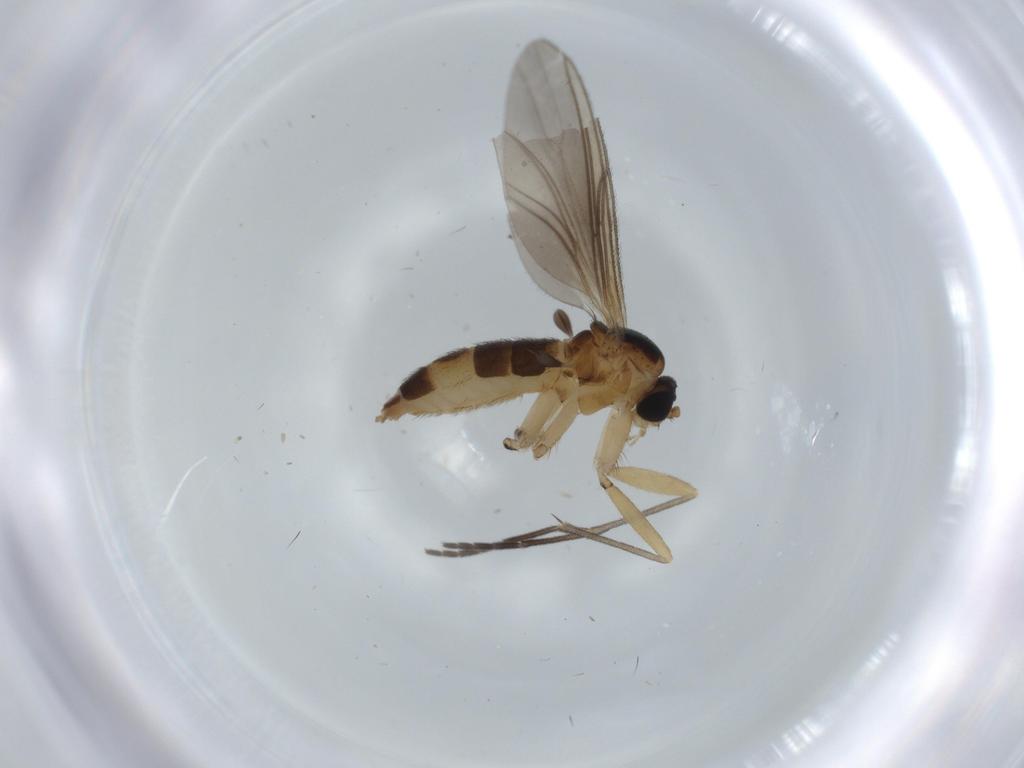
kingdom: Animalia
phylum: Arthropoda
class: Insecta
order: Diptera
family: Sciaridae
